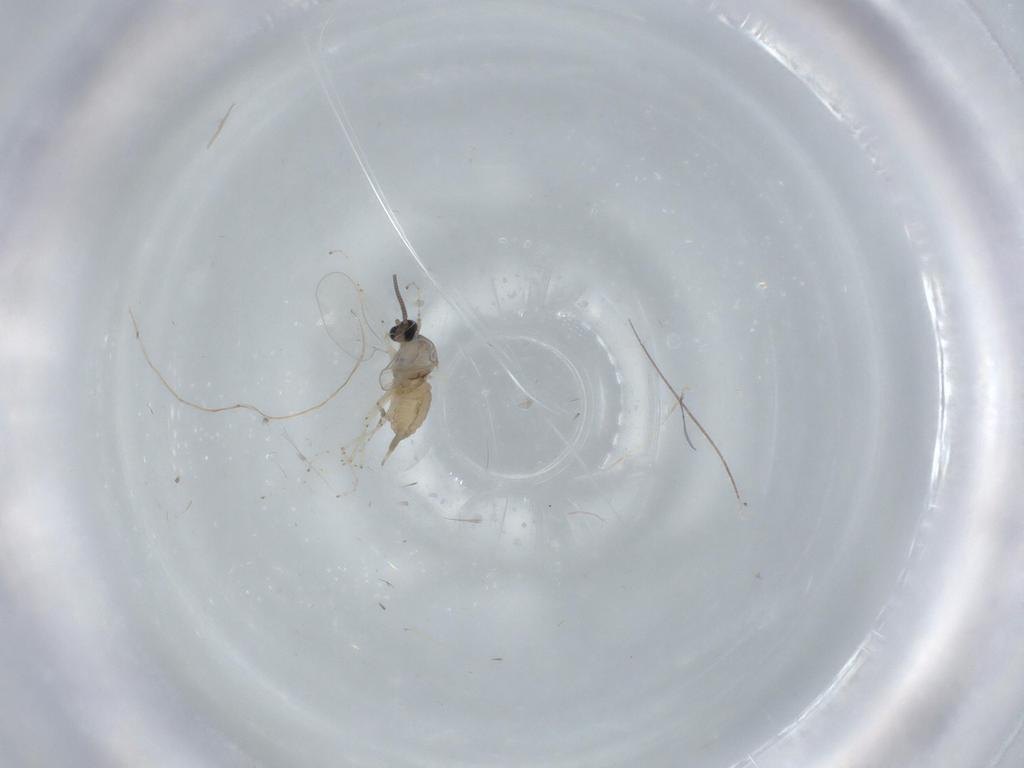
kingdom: Animalia
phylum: Arthropoda
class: Insecta
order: Diptera
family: Cecidomyiidae
